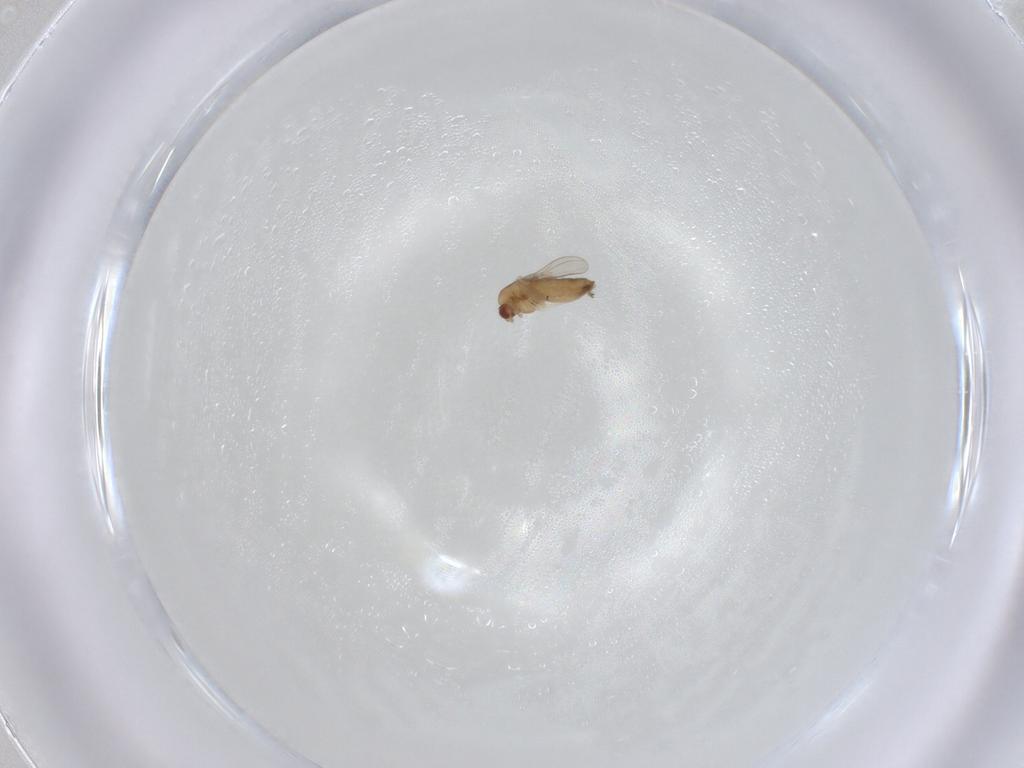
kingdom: Animalia
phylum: Arthropoda
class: Insecta
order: Diptera
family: Chironomidae
